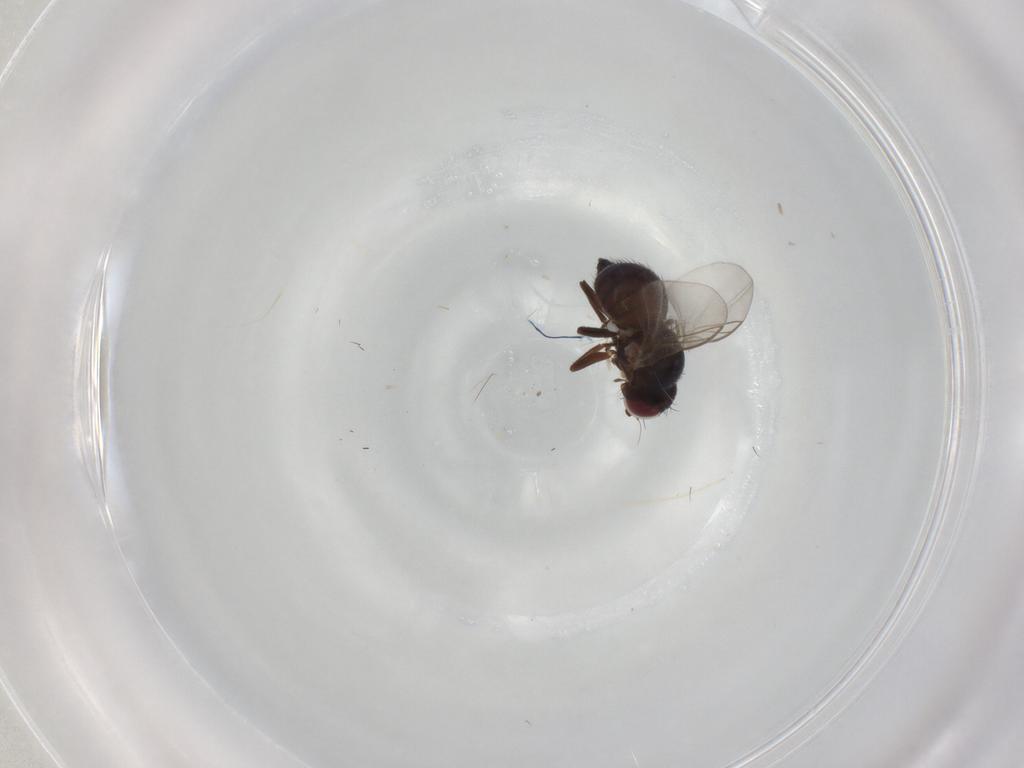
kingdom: Animalia
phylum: Arthropoda
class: Insecta
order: Diptera
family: Agromyzidae
